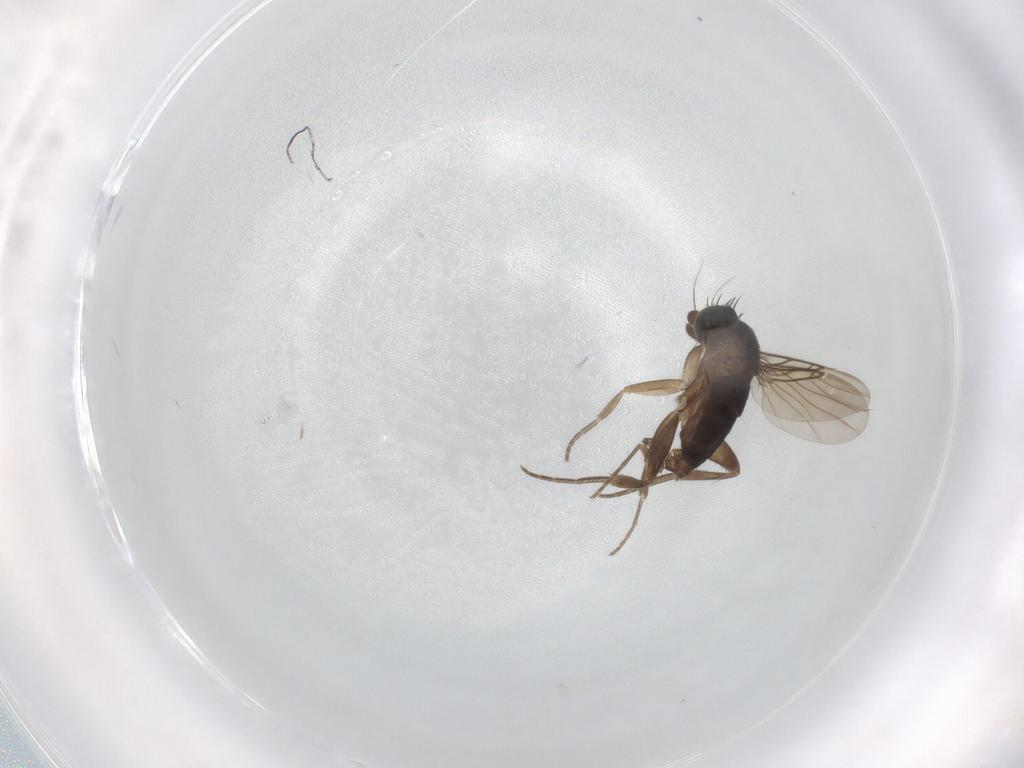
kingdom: Animalia
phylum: Arthropoda
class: Insecta
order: Diptera
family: Phoridae
